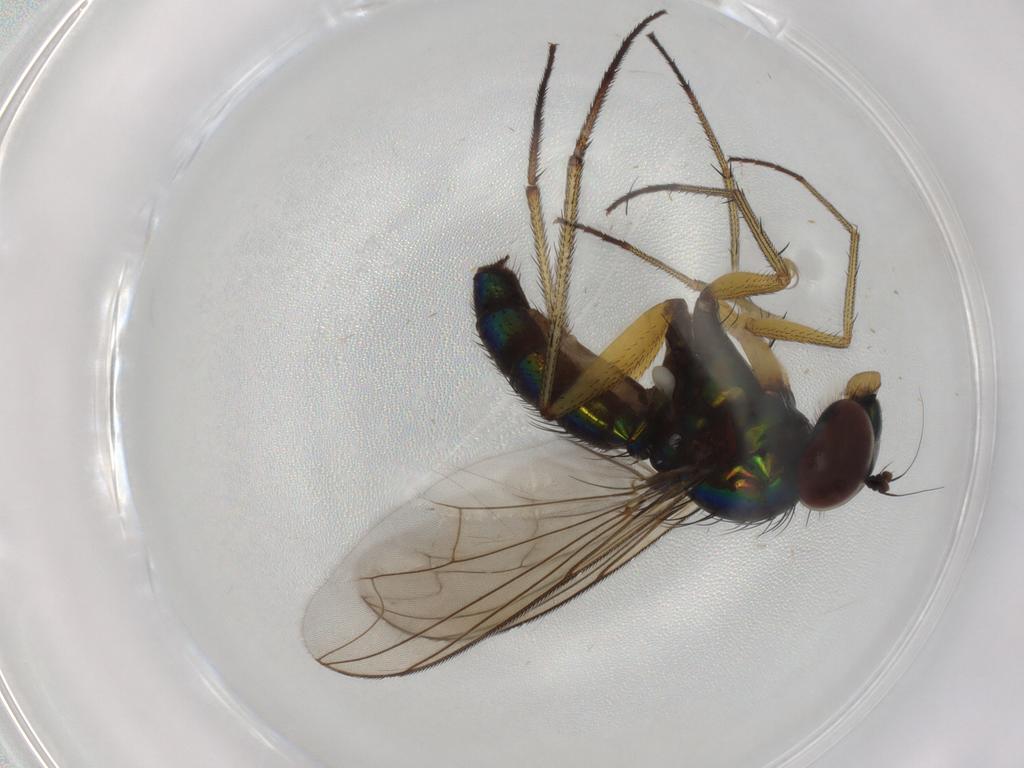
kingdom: Animalia
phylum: Arthropoda
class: Insecta
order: Diptera
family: Dolichopodidae
